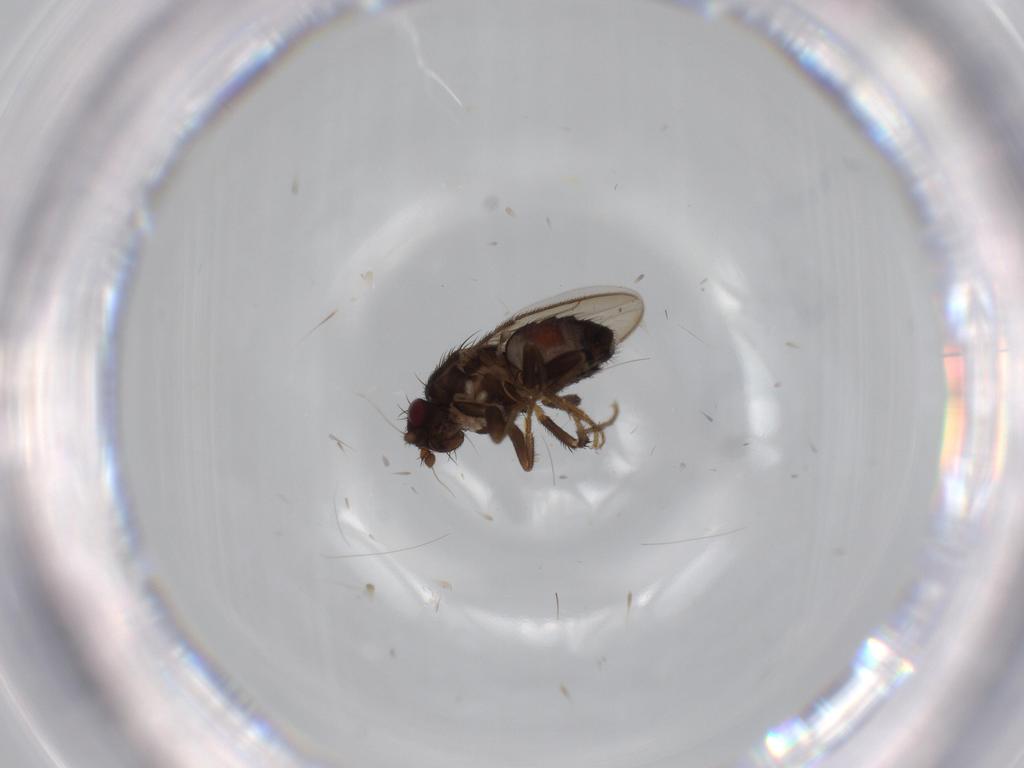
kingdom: Animalia
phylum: Arthropoda
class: Insecta
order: Diptera
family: Sphaeroceridae
